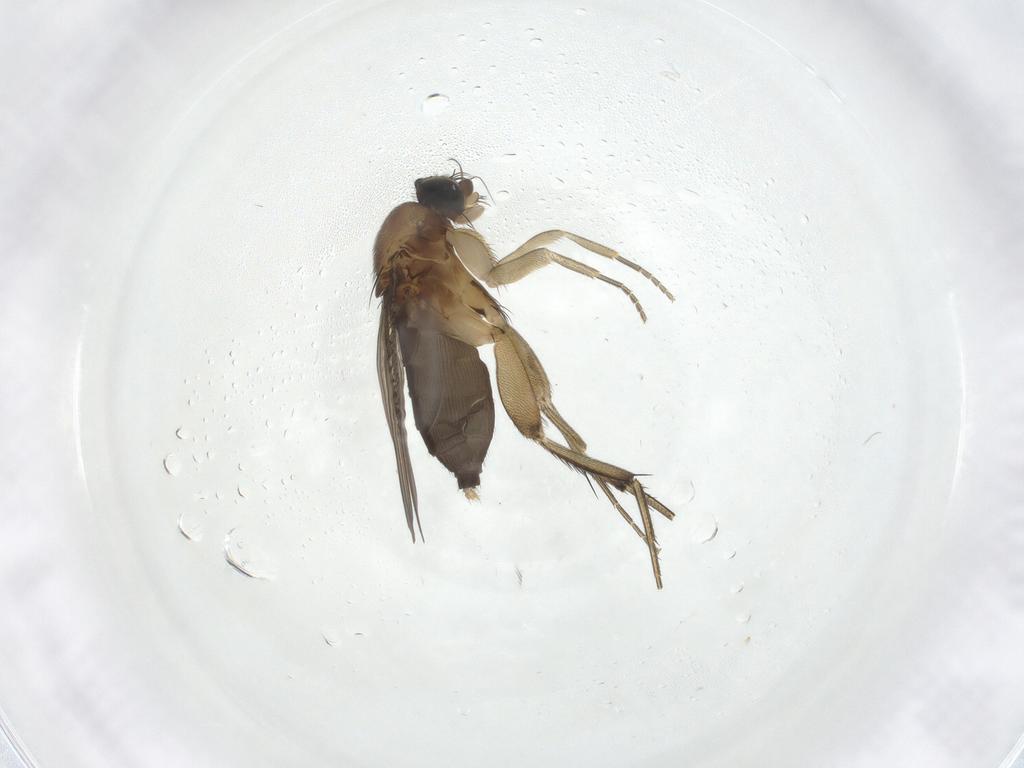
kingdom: Animalia
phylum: Arthropoda
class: Insecta
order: Diptera
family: Phoridae
